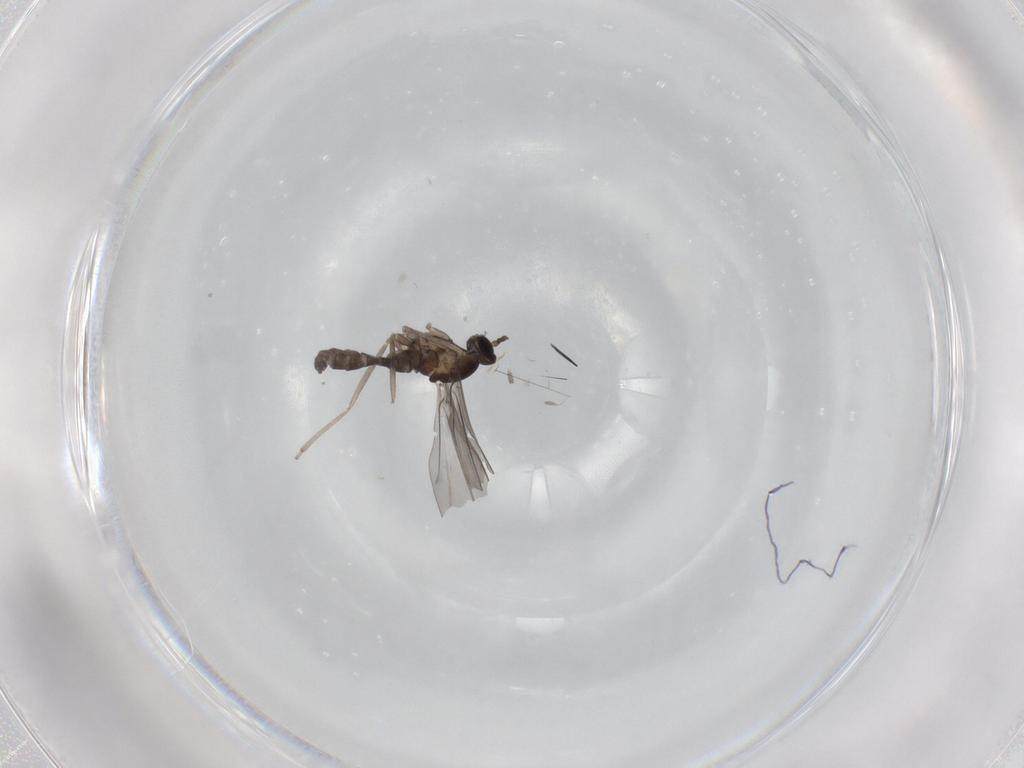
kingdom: Animalia
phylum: Arthropoda
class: Insecta
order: Diptera
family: Cecidomyiidae
